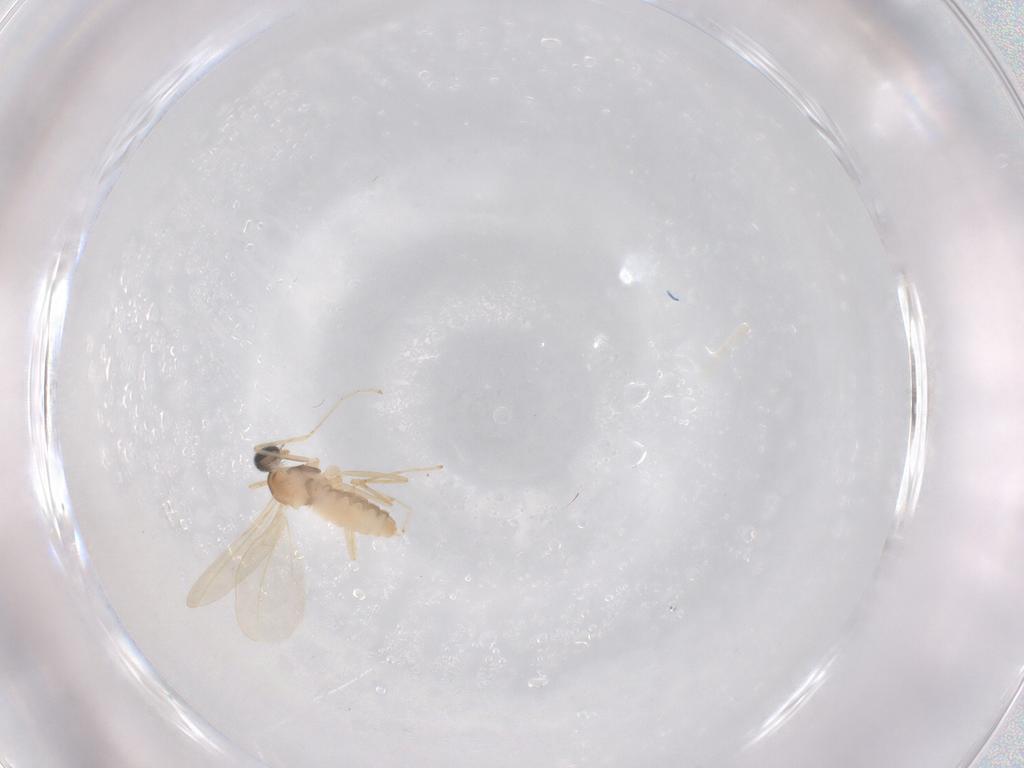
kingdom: Animalia
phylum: Arthropoda
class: Insecta
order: Diptera
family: Cecidomyiidae
